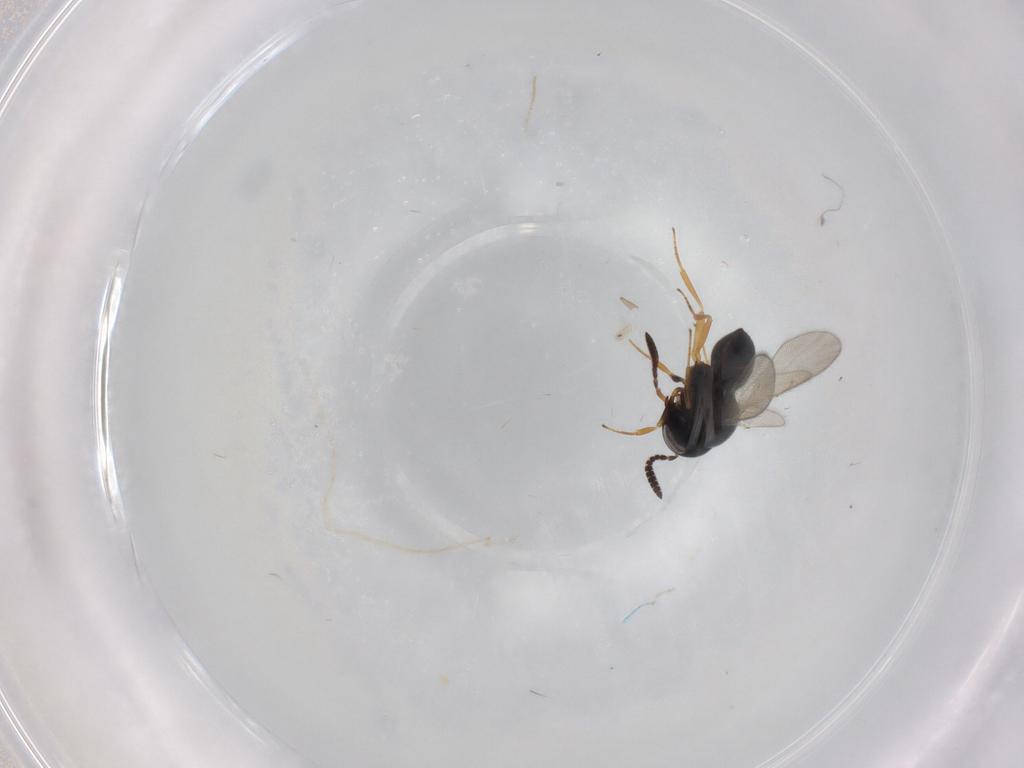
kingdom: Animalia
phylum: Arthropoda
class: Insecta
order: Hymenoptera
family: Scelionidae
